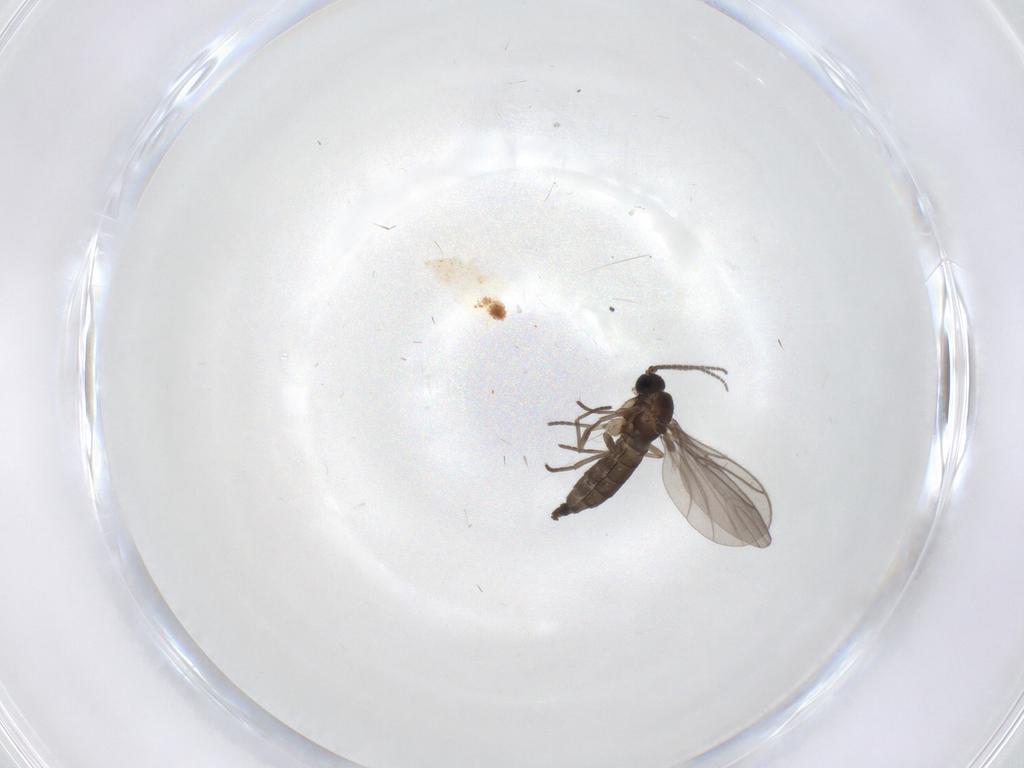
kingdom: Animalia
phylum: Arthropoda
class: Insecta
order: Diptera
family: Sciaridae
